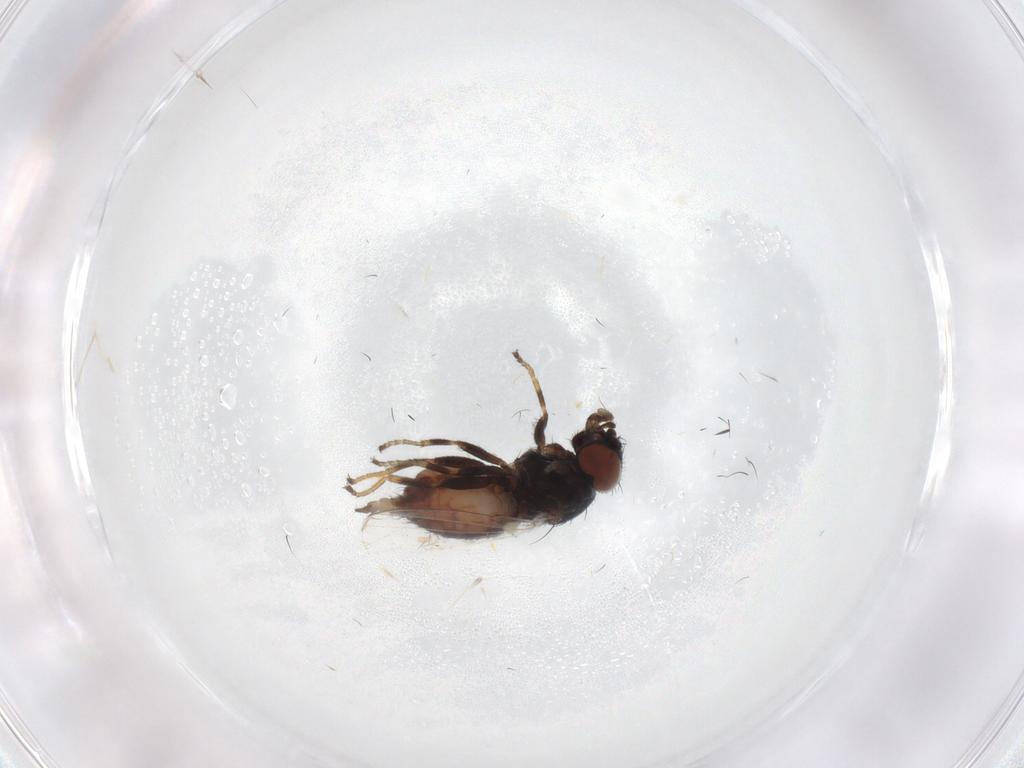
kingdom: Animalia
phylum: Arthropoda
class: Insecta
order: Diptera
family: Milichiidae
